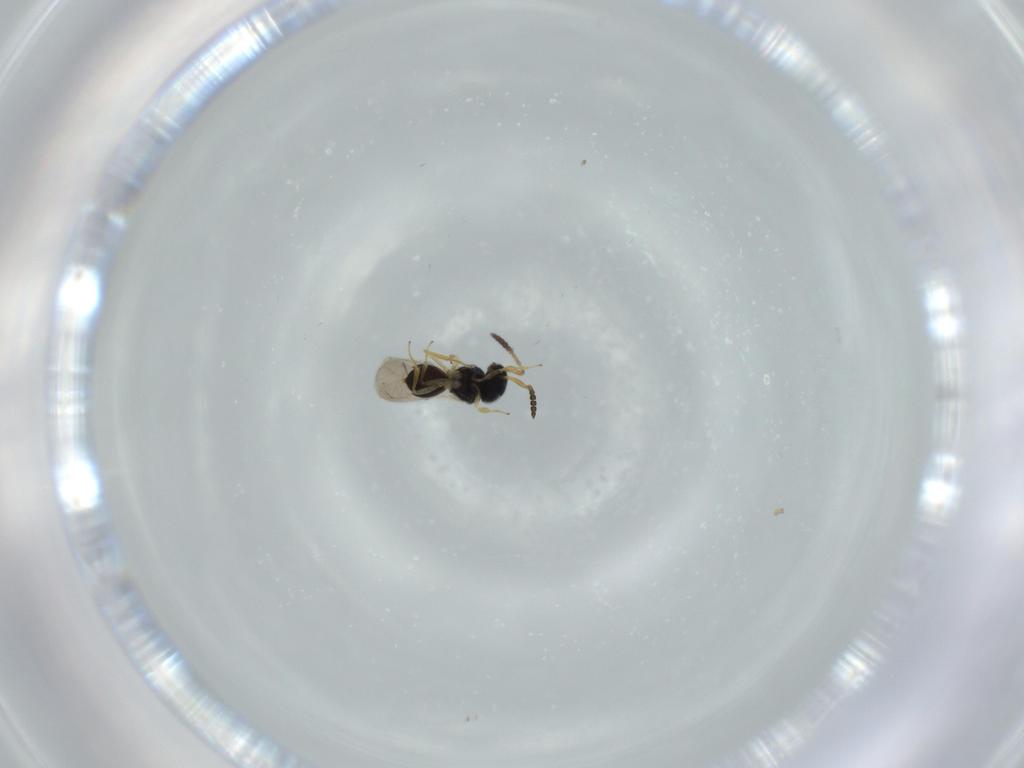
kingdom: Animalia
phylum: Arthropoda
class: Insecta
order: Hymenoptera
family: Scelionidae
